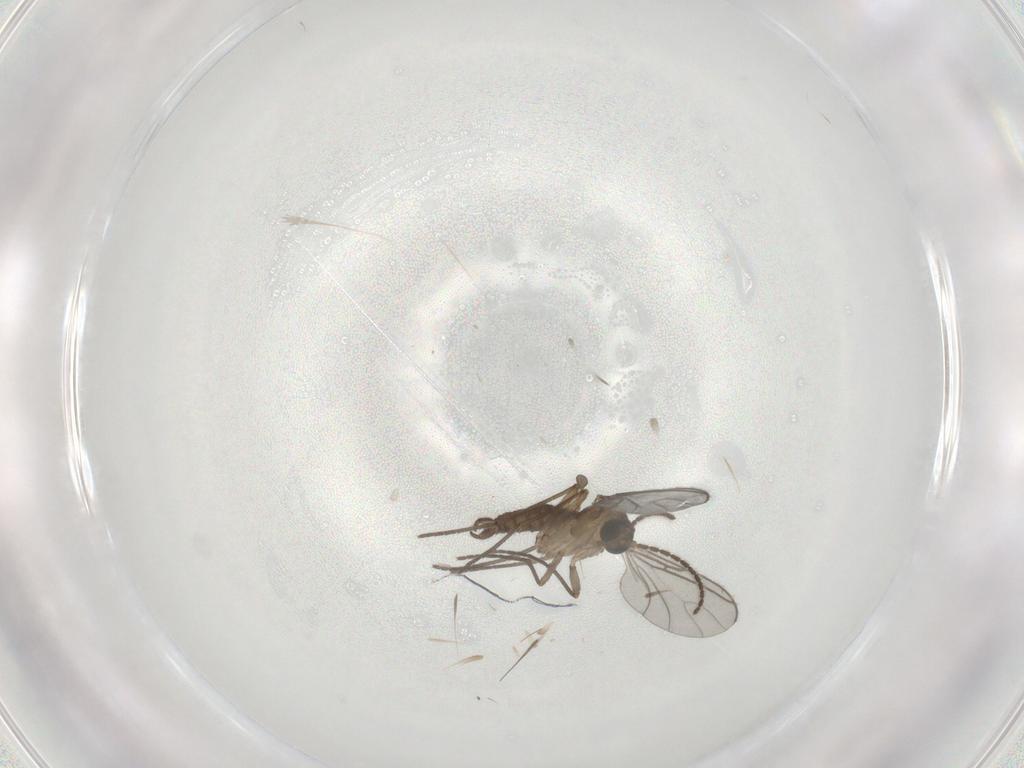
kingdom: Animalia
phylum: Arthropoda
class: Insecta
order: Diptera
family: Sciaridae
